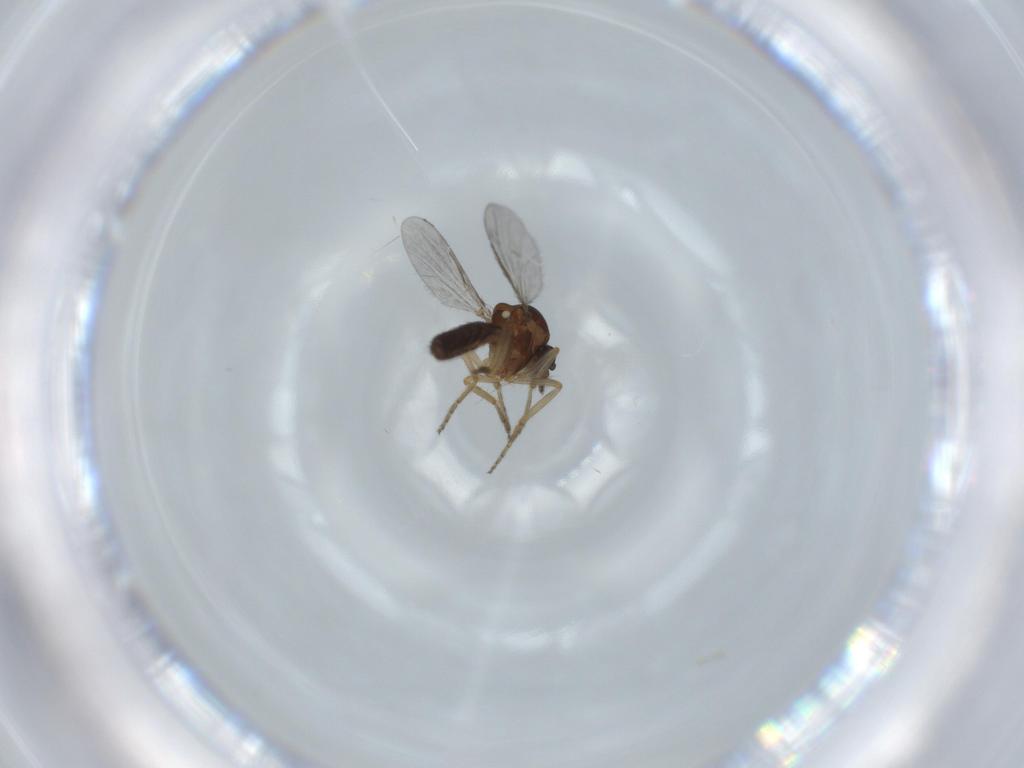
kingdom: Animalia
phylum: Arthropoda
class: Insecta
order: Diptera
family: Ceratopogonidae
